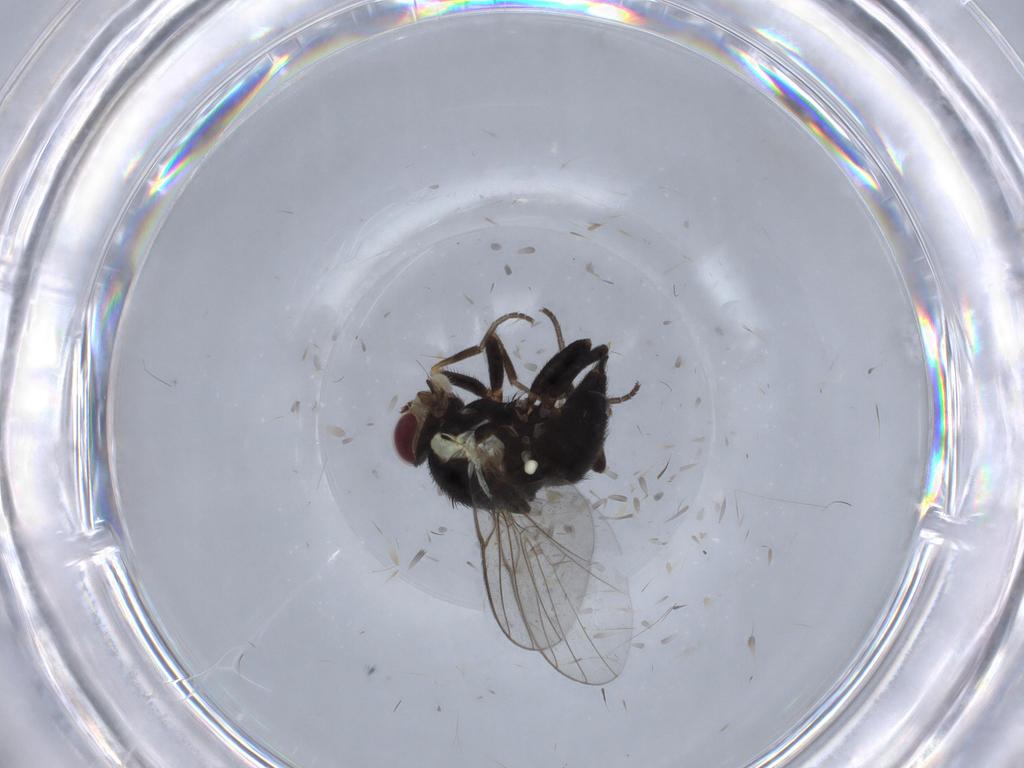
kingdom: Animalia
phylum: Arthropoda
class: Insecta
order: Diptera
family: Agromyzidae
